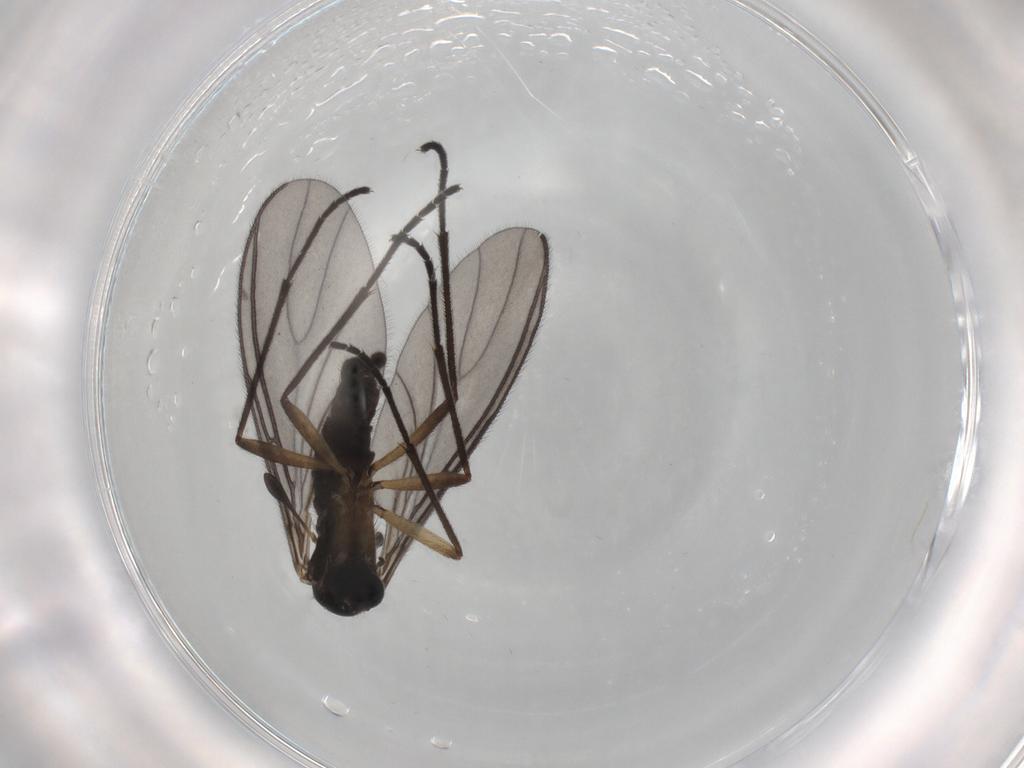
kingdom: Animalia
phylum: Arthropoda
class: Insecta
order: Diptera
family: Sciaridae
